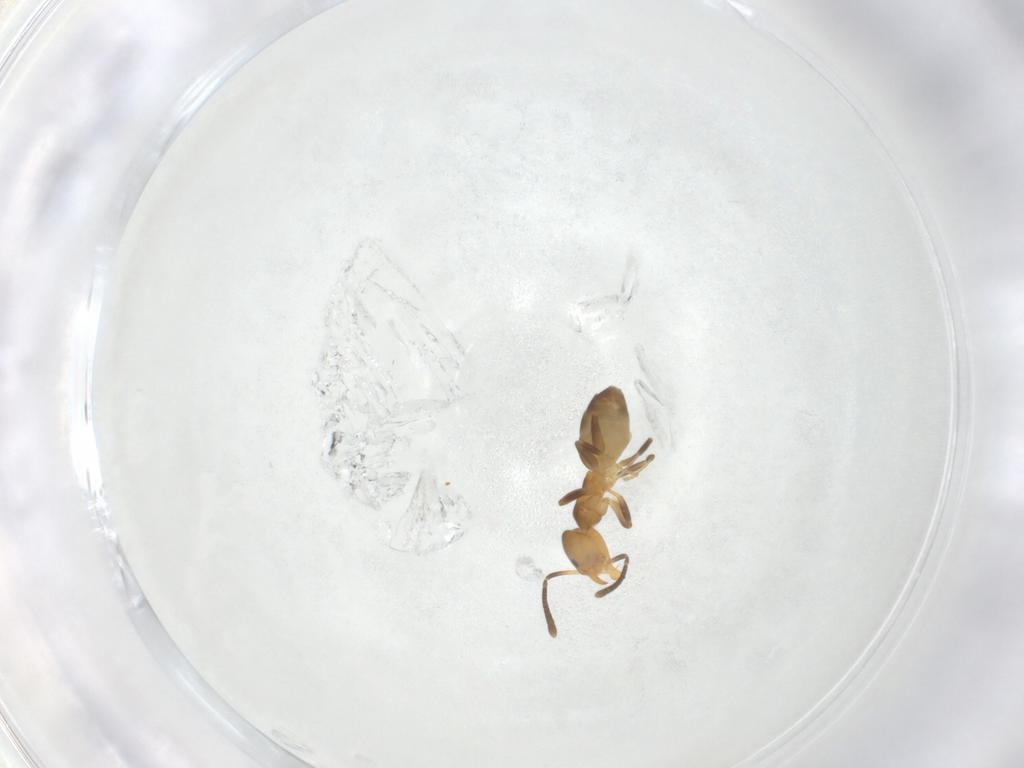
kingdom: Animalia
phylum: Arthropoda
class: Insecta
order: Hymenoptera
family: Formicidae
